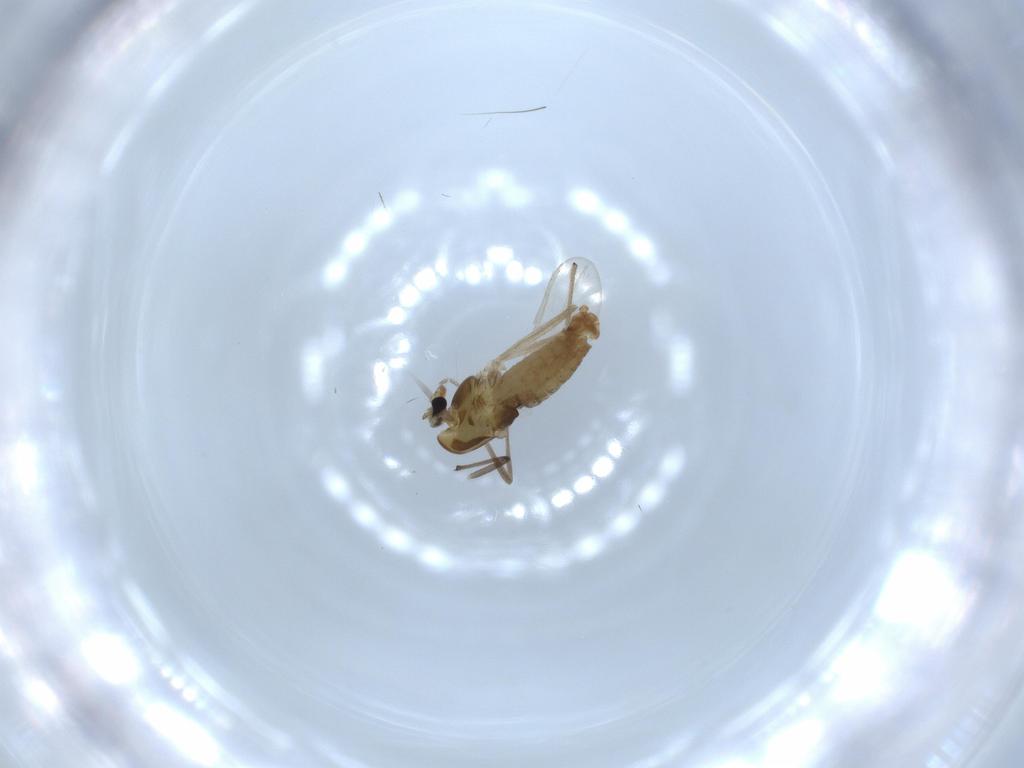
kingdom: Animalia
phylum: Arthropoda
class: Insecta
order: Diptera
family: Chironomidae
